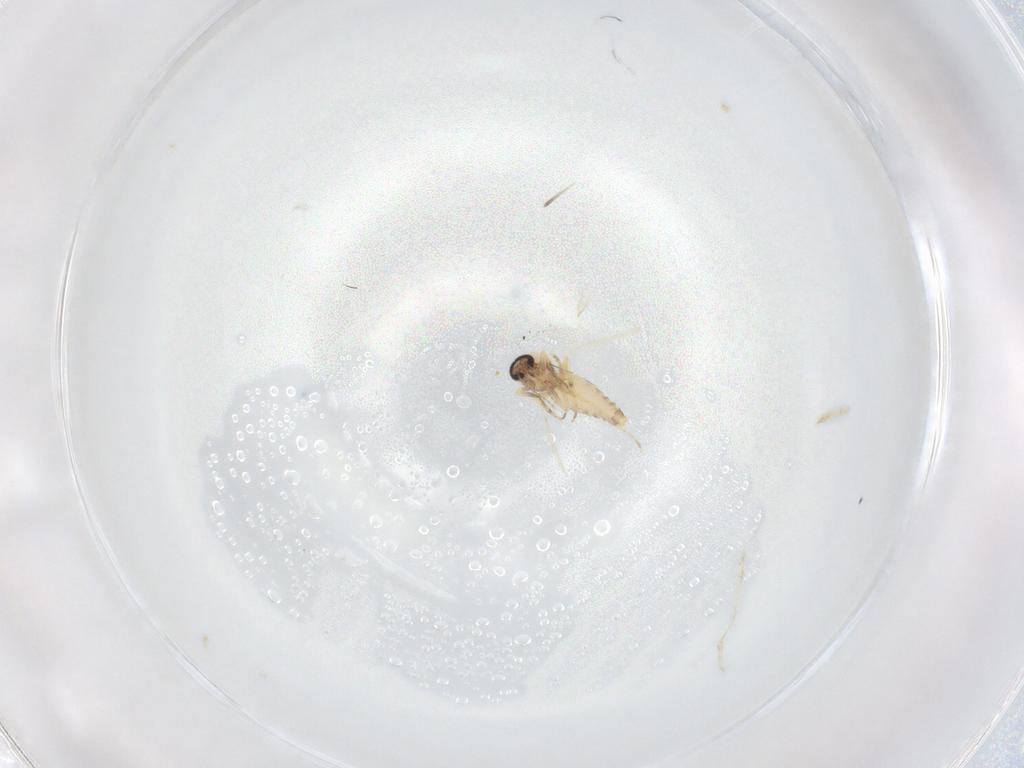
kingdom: Animalia
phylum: Arthropoda
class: Insecta
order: Diptera
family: Ceratopogonidae
